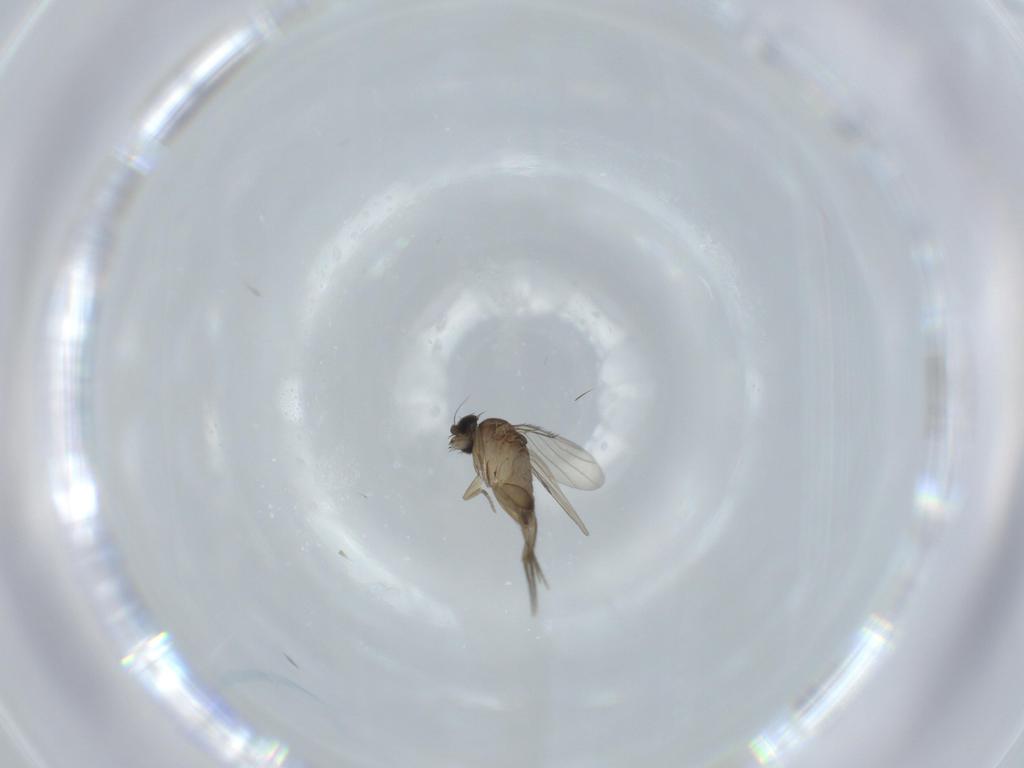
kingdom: Animalia
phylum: Arthropoda
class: Insecta
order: Diptera
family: Phoridae
